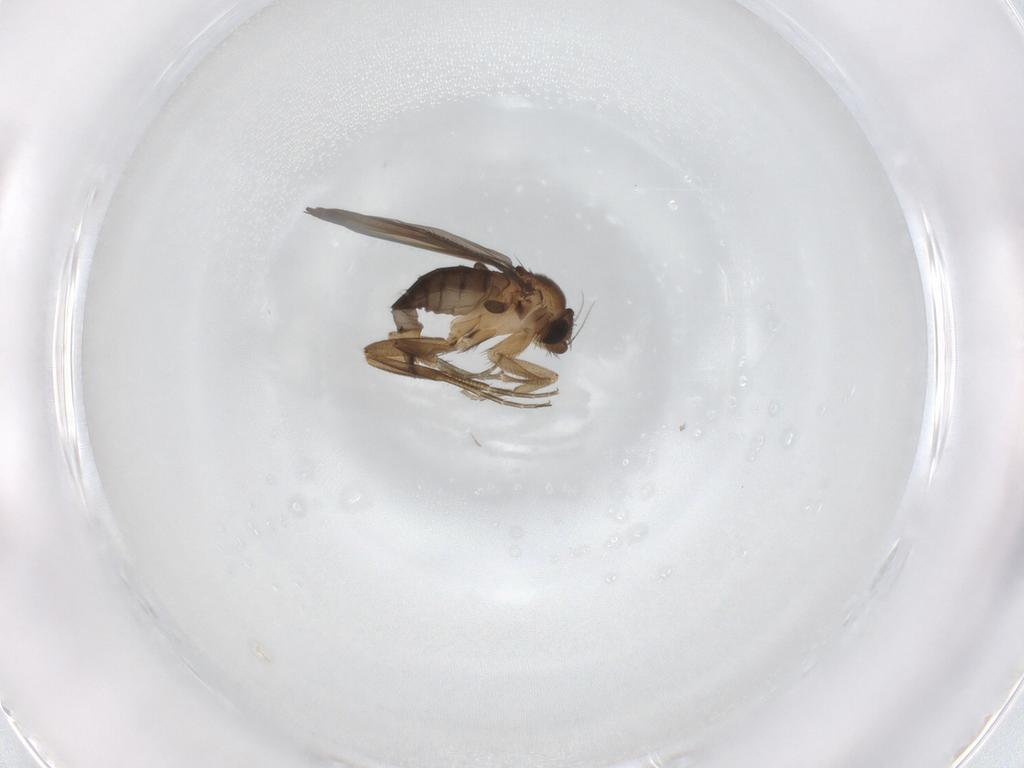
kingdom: Animalia
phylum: Arthropoda
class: Insecta
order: Diptera
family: Phoridae
